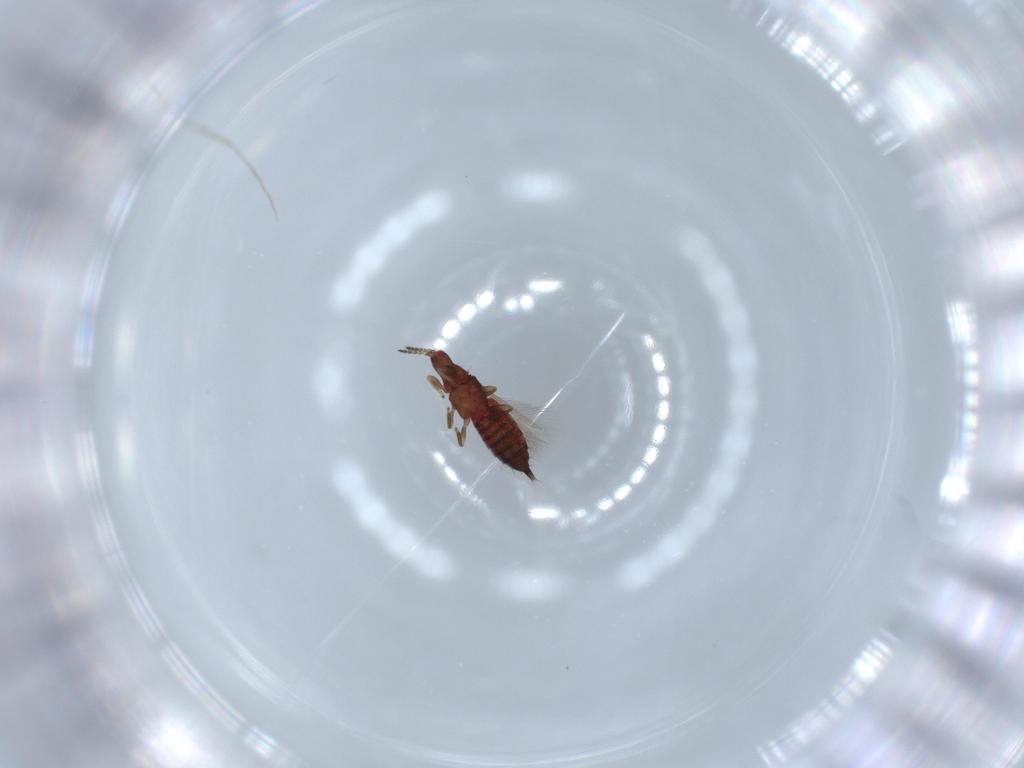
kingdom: Animalia
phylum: Arthropoda
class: Insecta
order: Thysanoptera
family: Phlaeothripidae
